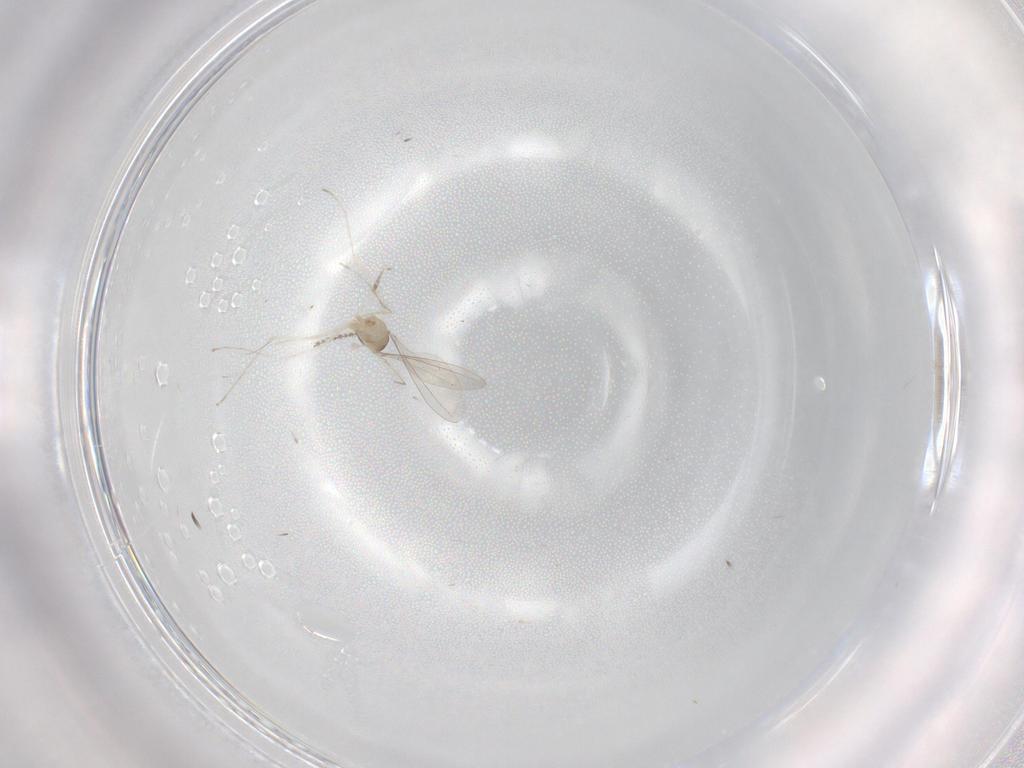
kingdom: Animalia
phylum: Arthropoda
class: Insecta
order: Diptera
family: Cecidomyiidae
